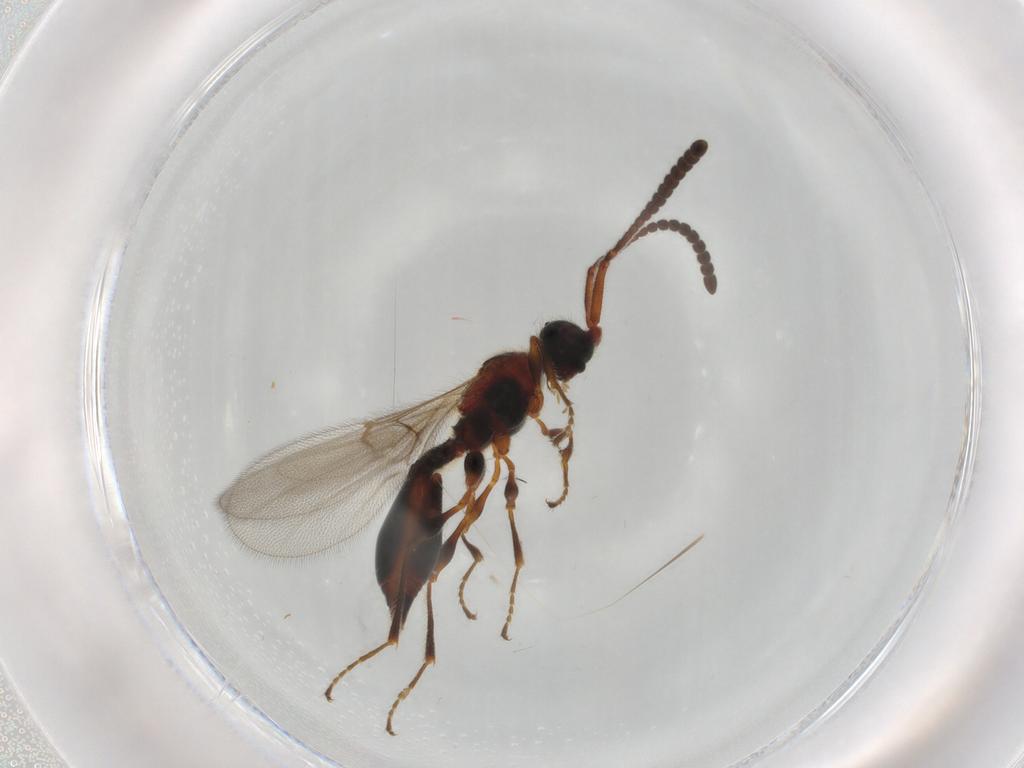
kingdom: Animalia
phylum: Arthropoda
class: Insecta
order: Hymenoptera
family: Diapriidae
